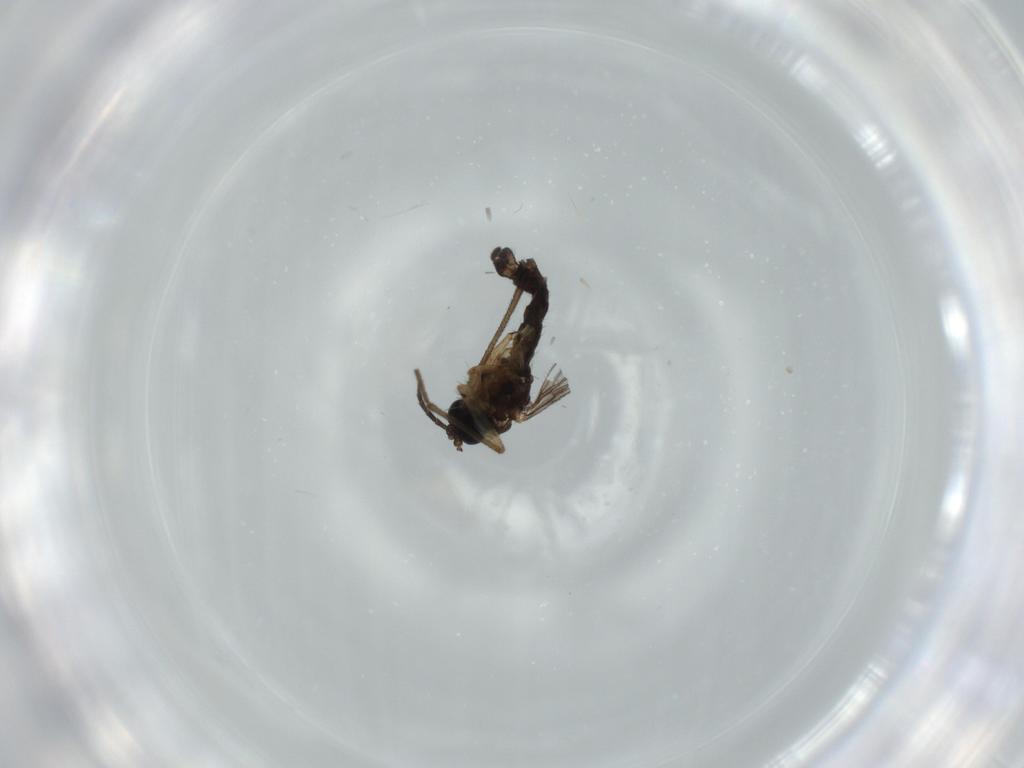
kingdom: Animalia
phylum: Arthropoda
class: Insecta
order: Diptera
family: Sciaridae
